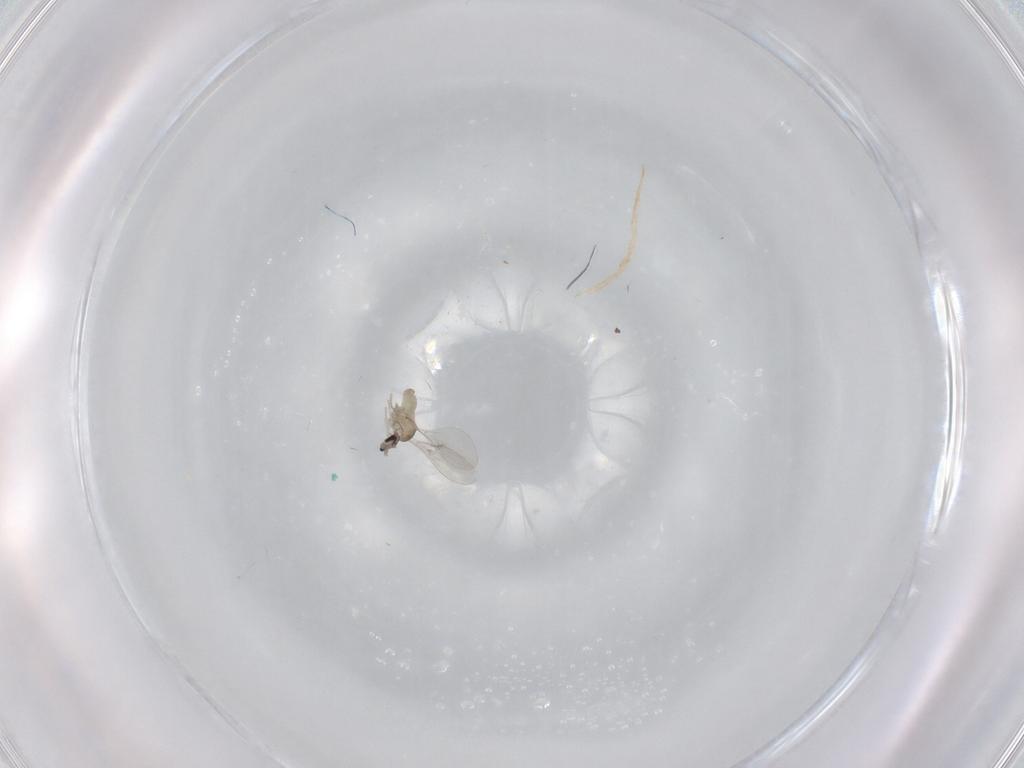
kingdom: Animalia
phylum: Arthropoda
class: Insecta
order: Diptera
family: Cecidomyiidae
